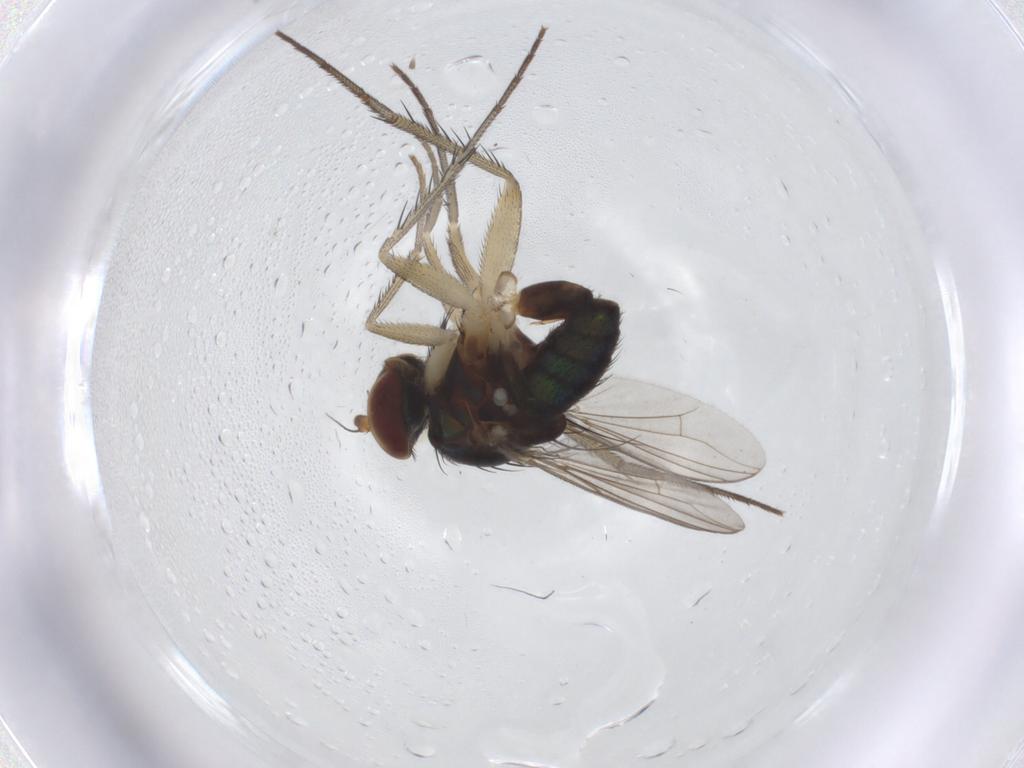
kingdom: Animalia
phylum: Arthropoda
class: Insecta
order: Diptera
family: Dolichopodidae
